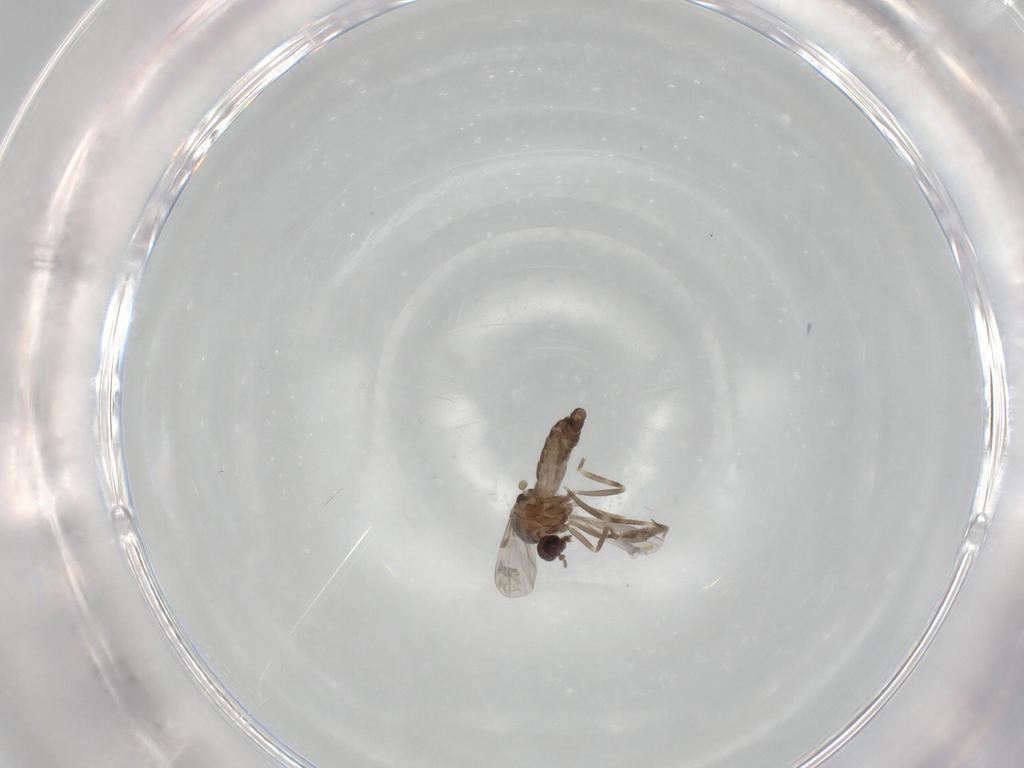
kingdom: Animalia
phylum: Arthropoda
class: Insecta
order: Diptera
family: Ceratopogonidae
